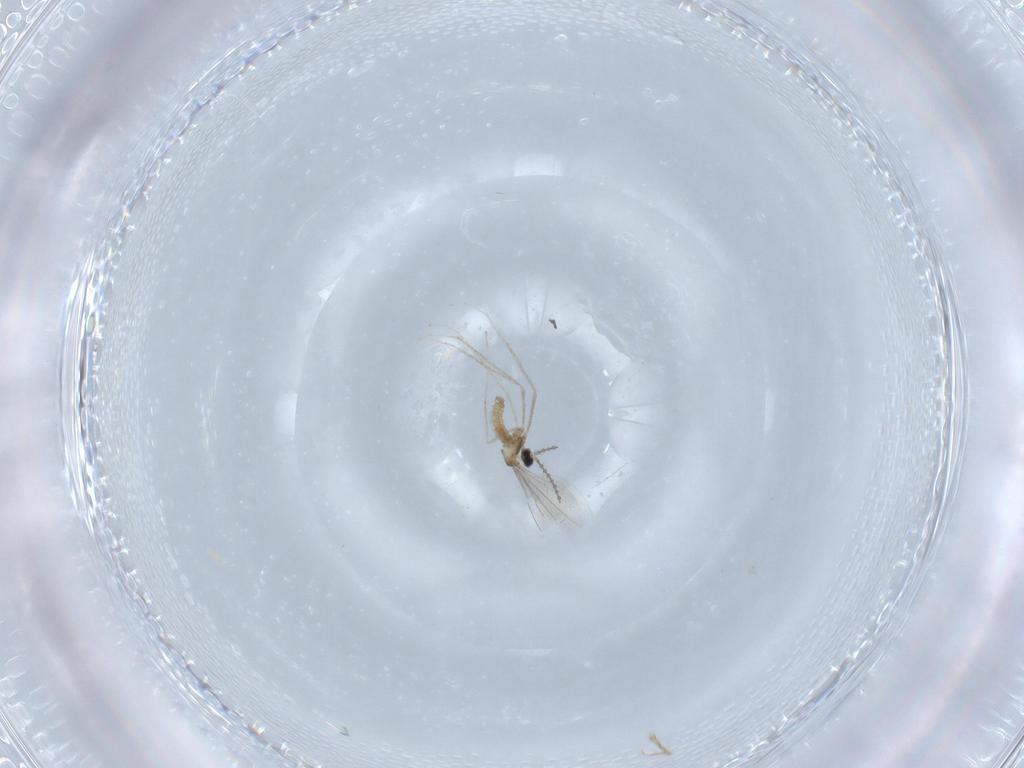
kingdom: Animalia
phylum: Arthropoda
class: Insecta
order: Diptera
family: Cecidomyiidae
